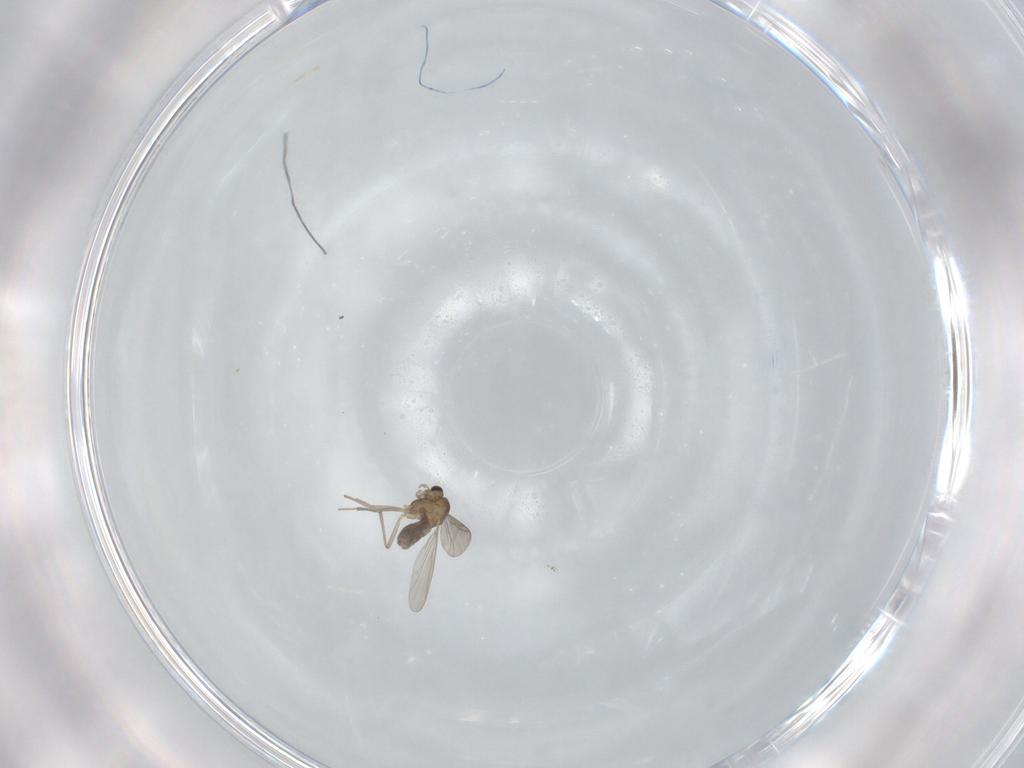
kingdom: Animalia
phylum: Arthropoda
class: Insecta
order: Diptera
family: Sciaridae
